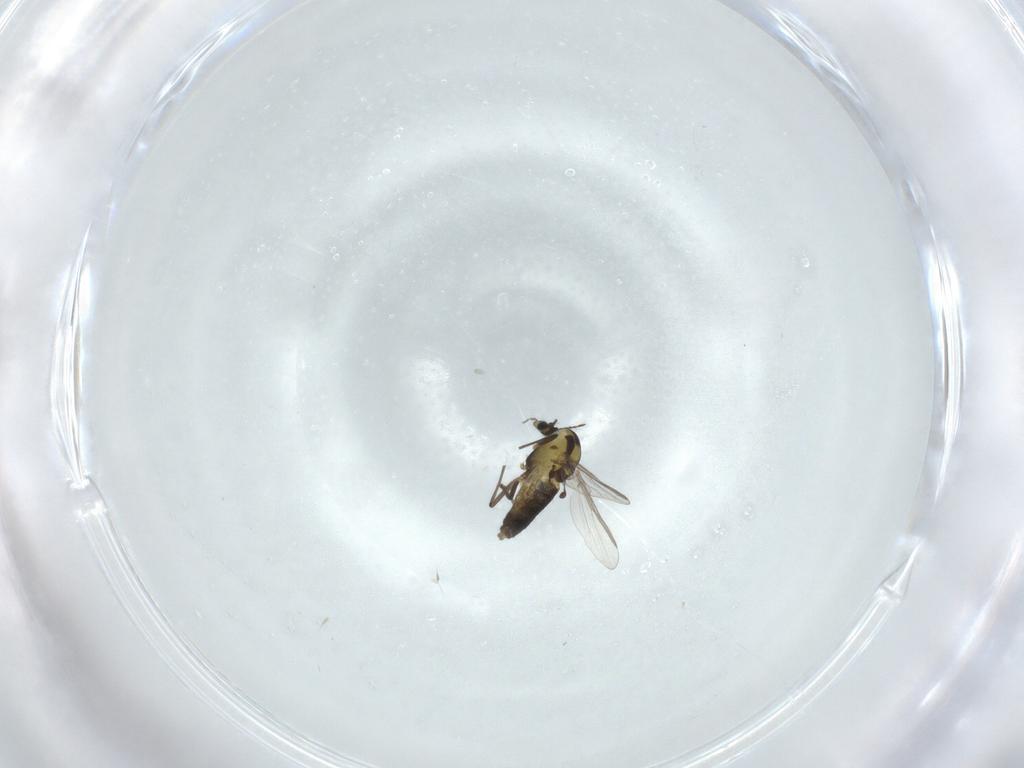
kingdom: Animalia
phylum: Arthropoda
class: Insecta
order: Diptera
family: Chironomidae
